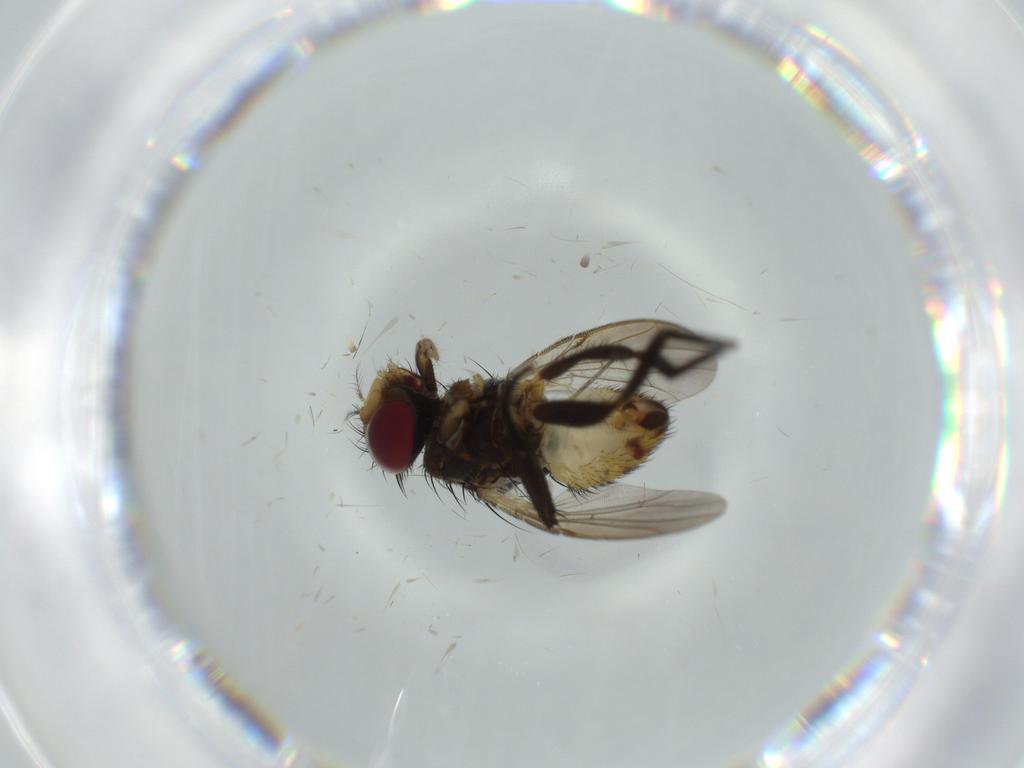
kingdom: Animalia
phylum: Arthropoda
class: Insecta
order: Diptera
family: Anthomyiidae
